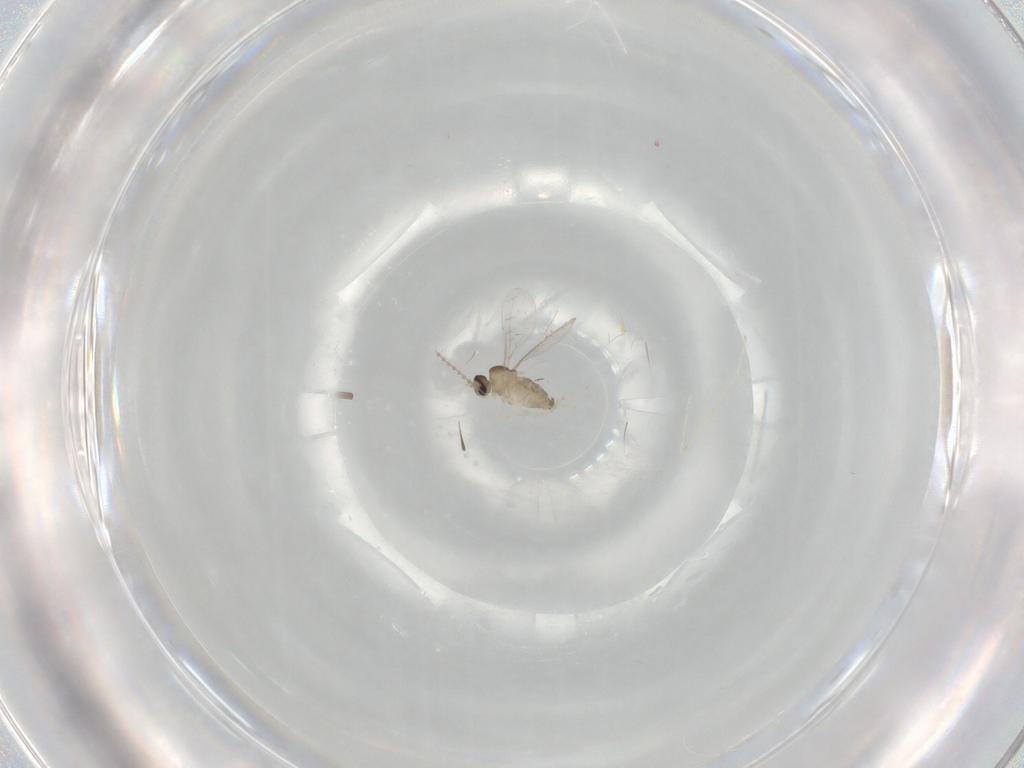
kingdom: Animalia
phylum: Arthropoda
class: Insecta
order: Diptera
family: Cecidomyiidae
